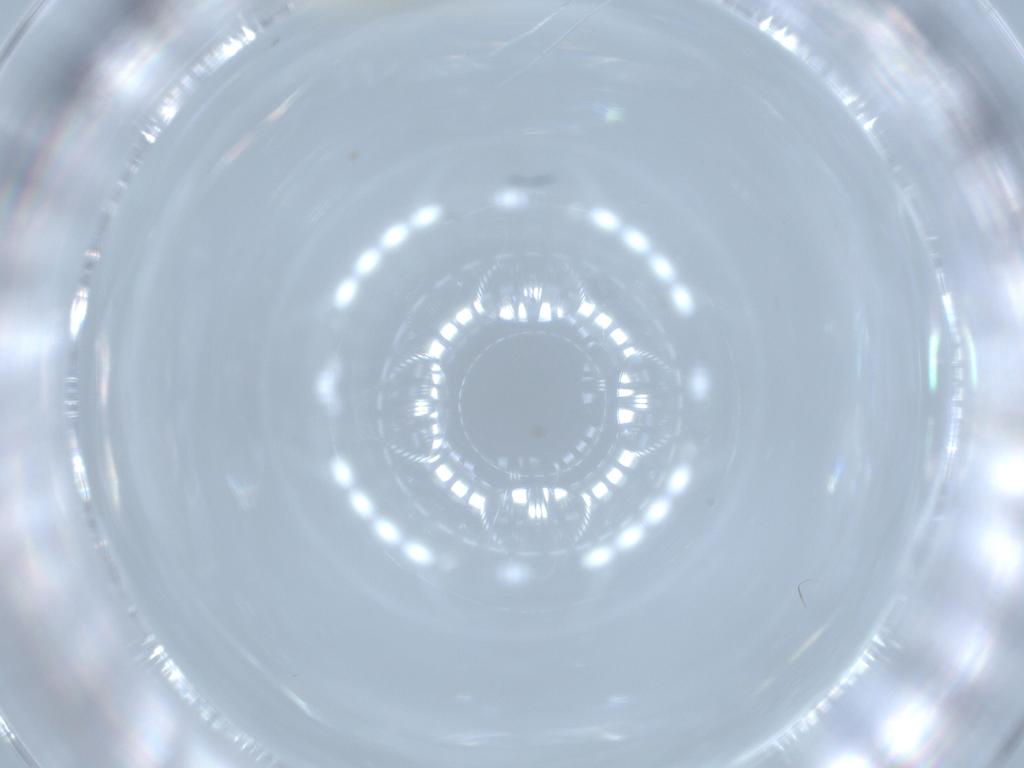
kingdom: Animalia
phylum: Arthropoda
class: Insecta
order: Diptera
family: Cecidomyiidae
